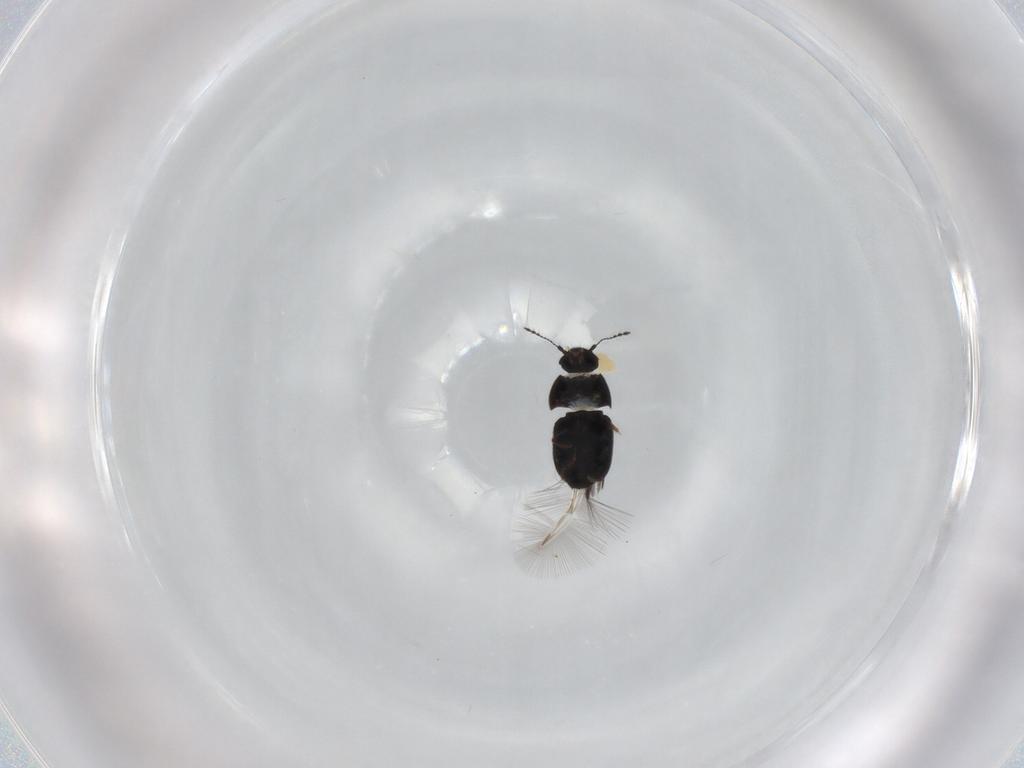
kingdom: Animalia
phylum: Arthropoda
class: Insecta
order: Coleoptera
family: Ptiliidae
